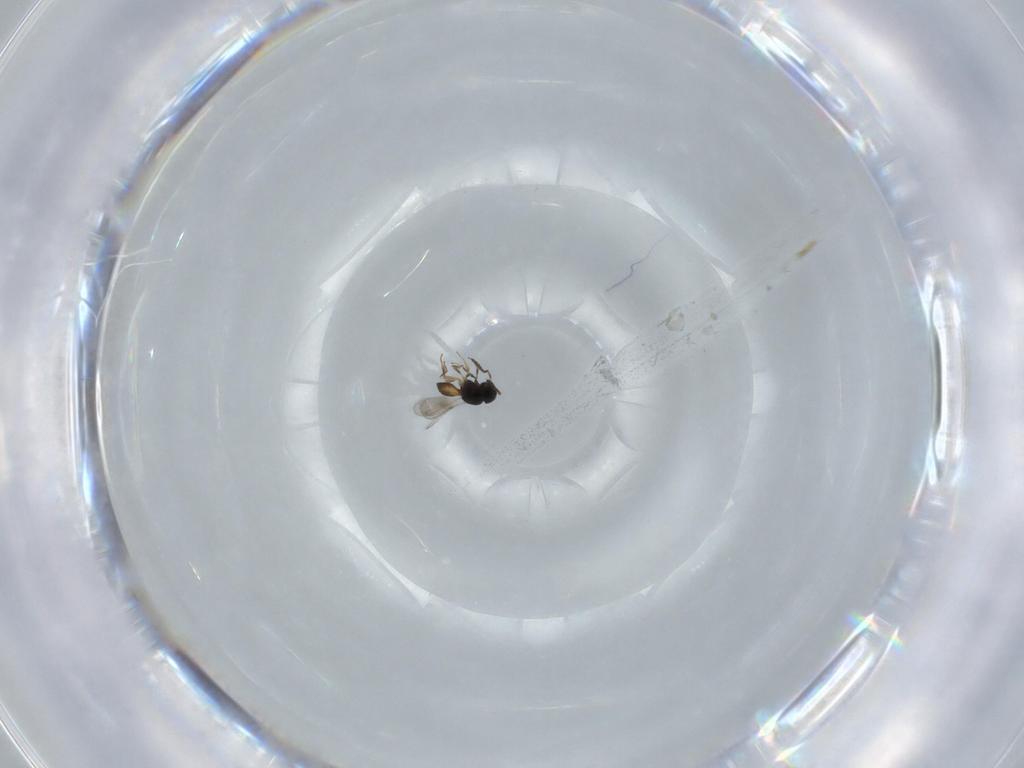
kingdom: Animalia
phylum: Arthropoda
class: Insecta
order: Hymenoptera
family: Scelionidae
